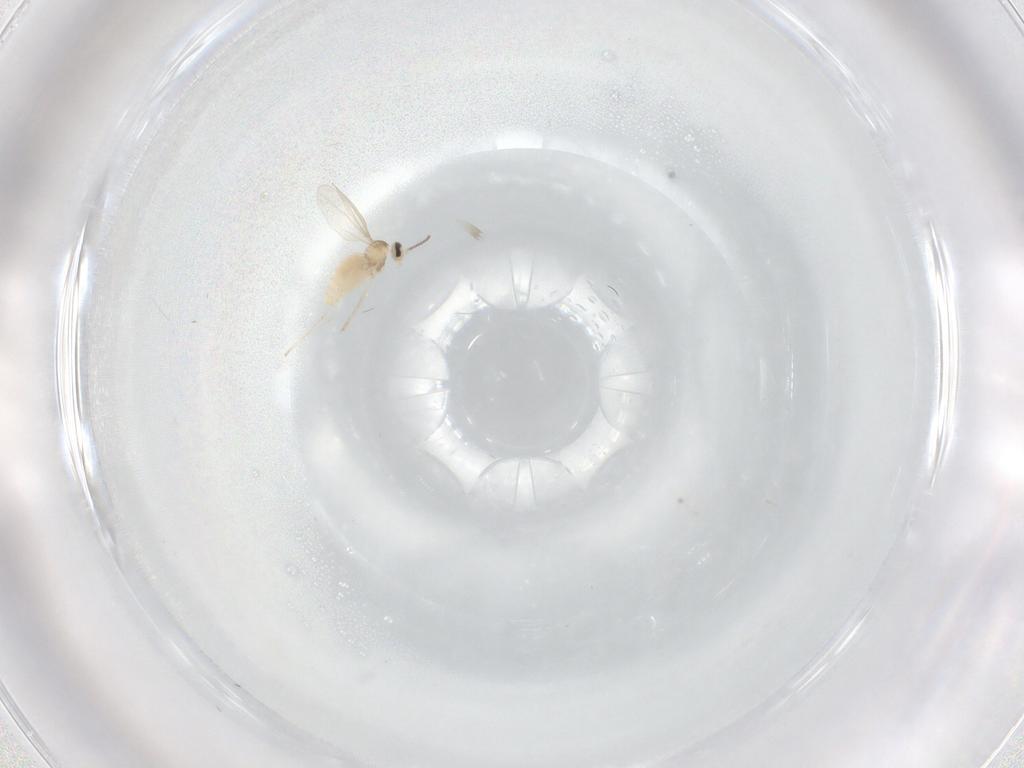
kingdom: Animalia
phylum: Arthropoda
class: Insecta
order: Diptera
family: Phoridae
